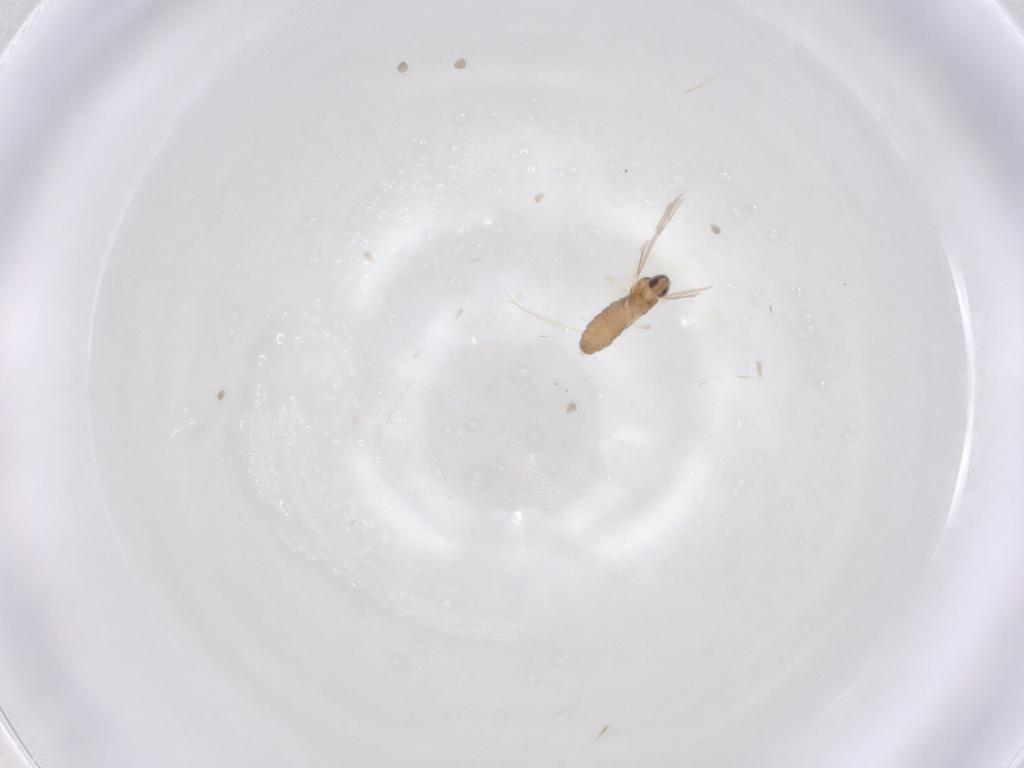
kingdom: Animalia
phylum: Arthropoda
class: Insecta
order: Diptera
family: Cecidomyiidae
